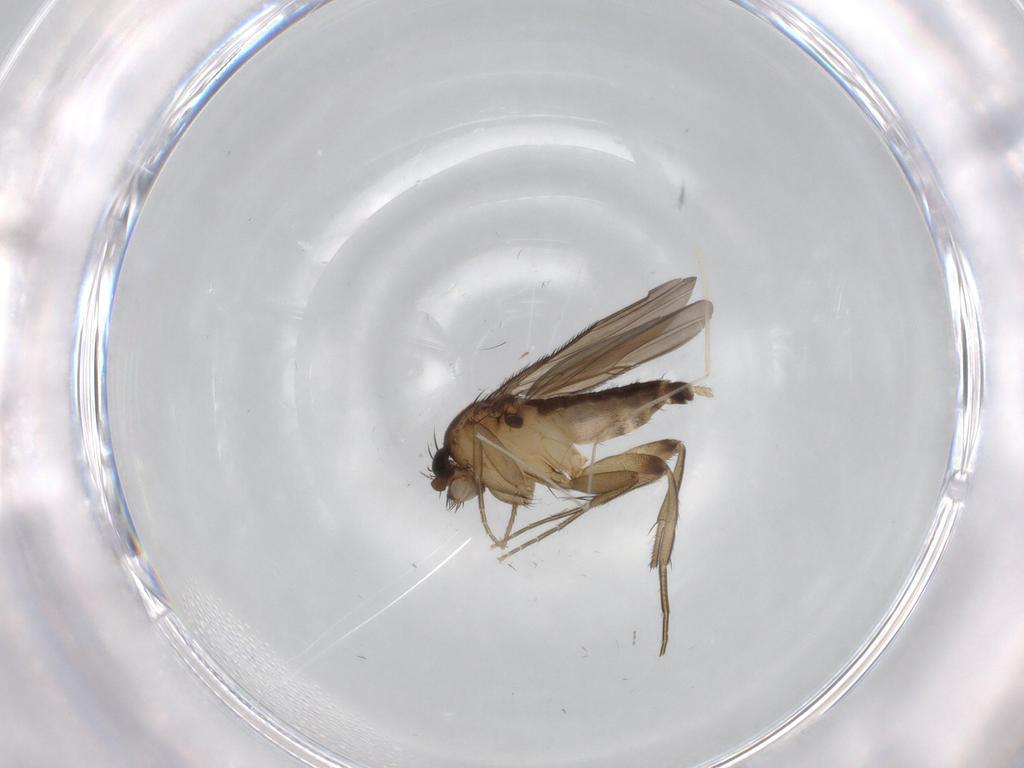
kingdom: Animalia
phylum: Arthropoda
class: Insecta
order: Diptera
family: Phoridae
